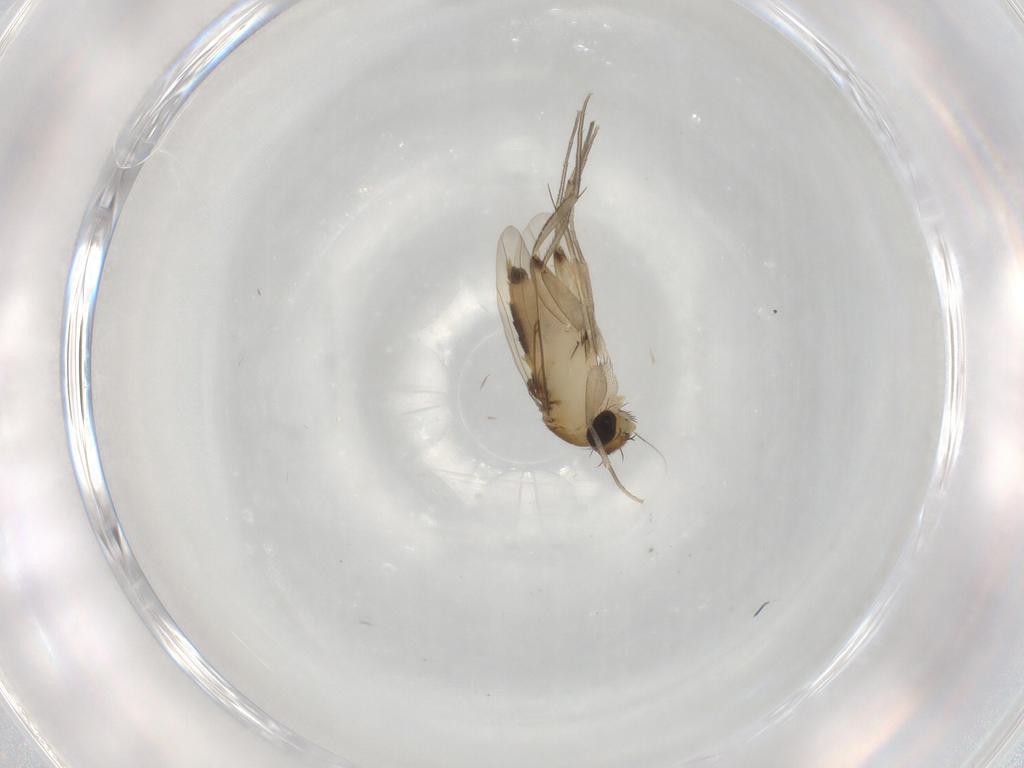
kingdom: Animalia
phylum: Arthropoda
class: Insecta
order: Diptera
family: Phoridae
